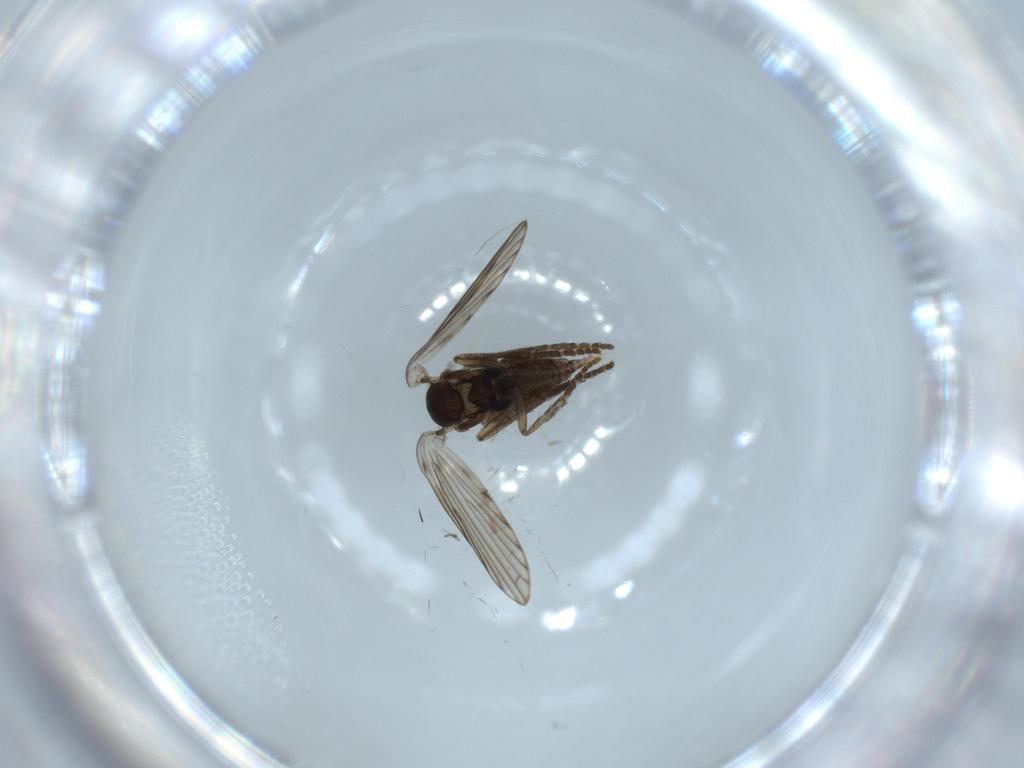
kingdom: Animalia
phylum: Arthropoda
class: Insecta
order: Diptera
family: Psychodidae
